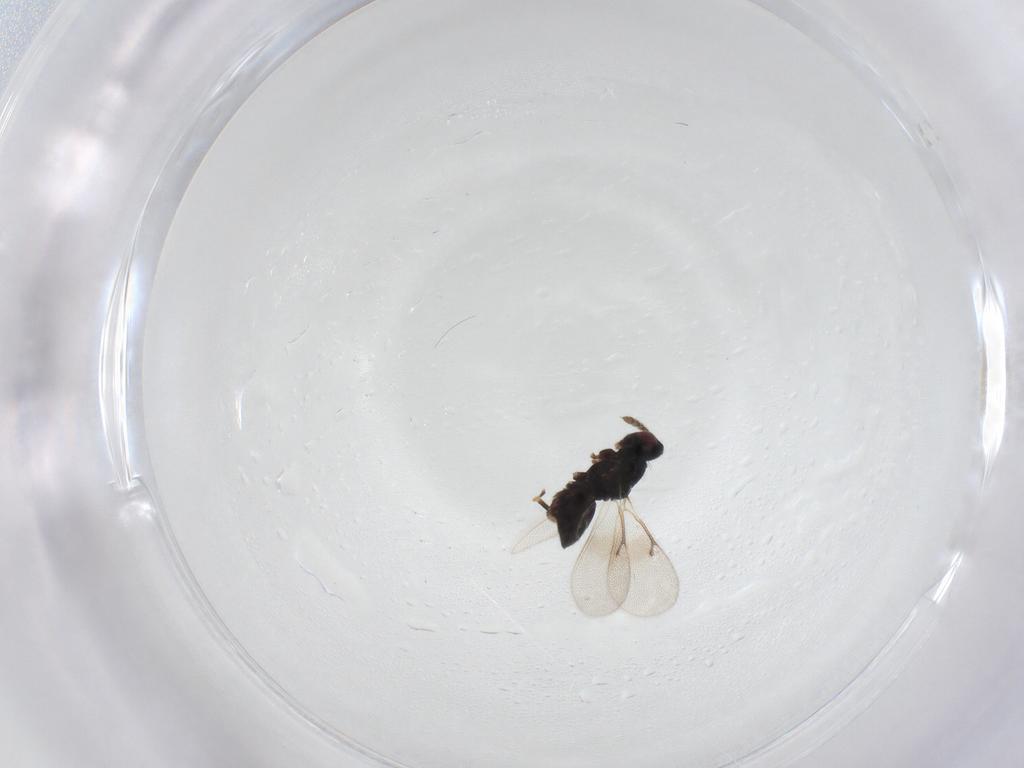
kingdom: Animalia
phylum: Arthropoda
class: Insecta
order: Hymenoptera
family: Eulophidae
